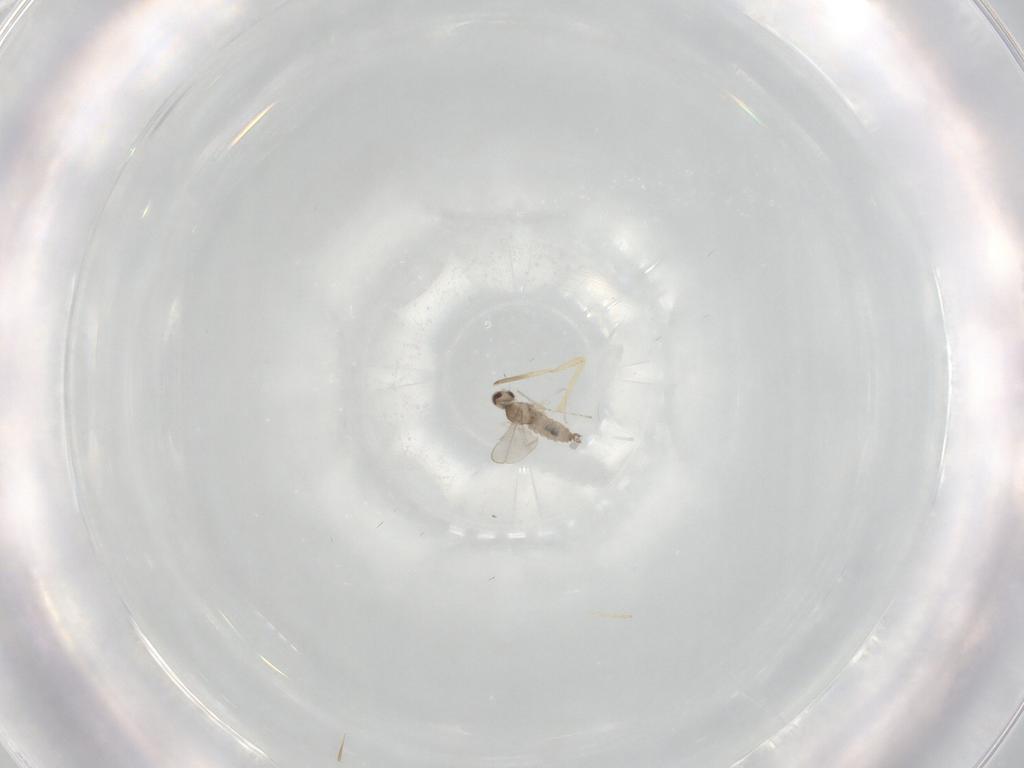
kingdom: Animalia
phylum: Arthropoda
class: Insecta
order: Diptera
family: Cecidomyiidae
